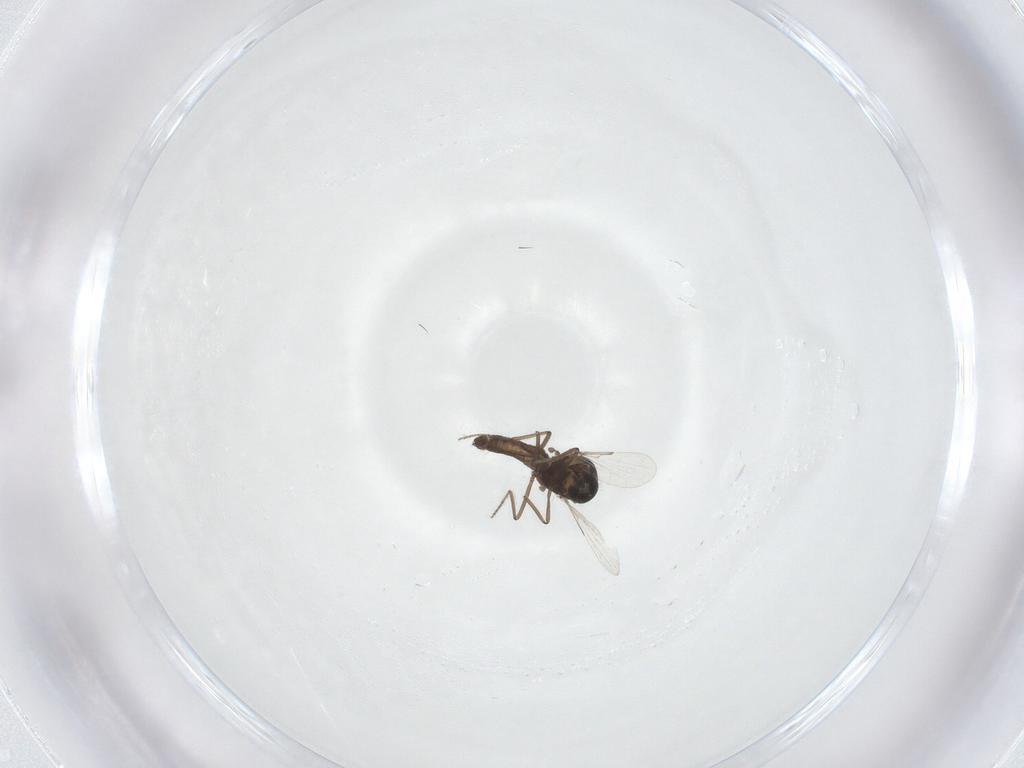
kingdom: Animalia
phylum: Arthropoda
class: Insecta
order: Diptera
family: Ceratopogonidae
